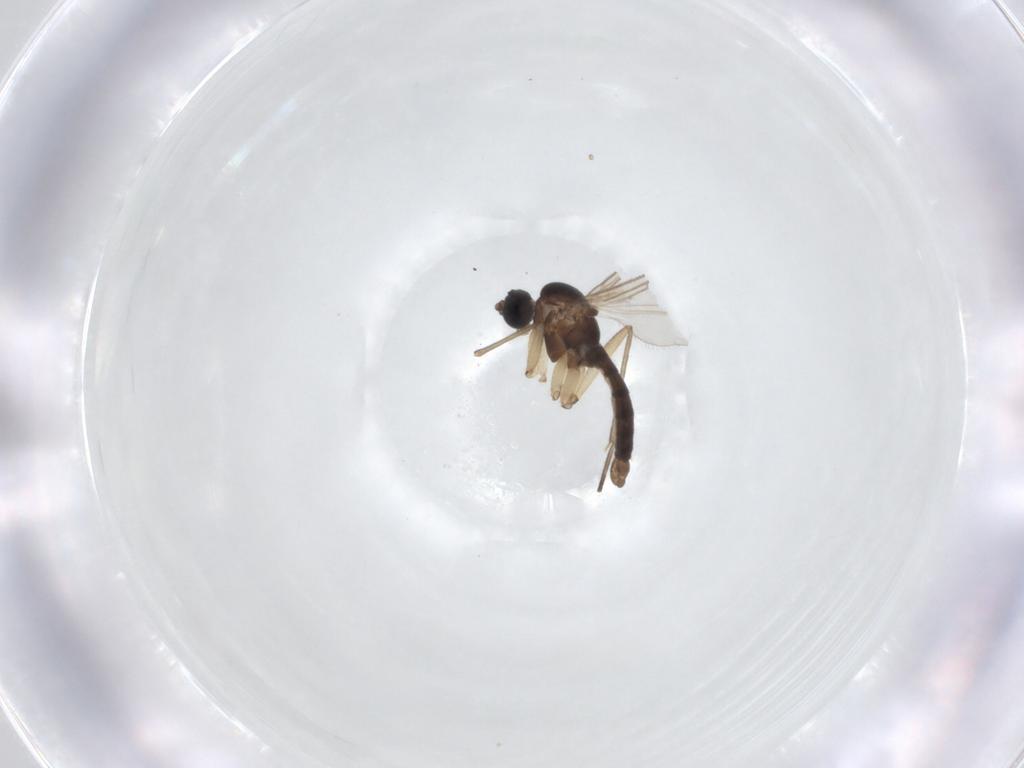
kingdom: Animalia
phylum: Arthropoda
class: Insecta
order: Diptera
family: Sciaridae
